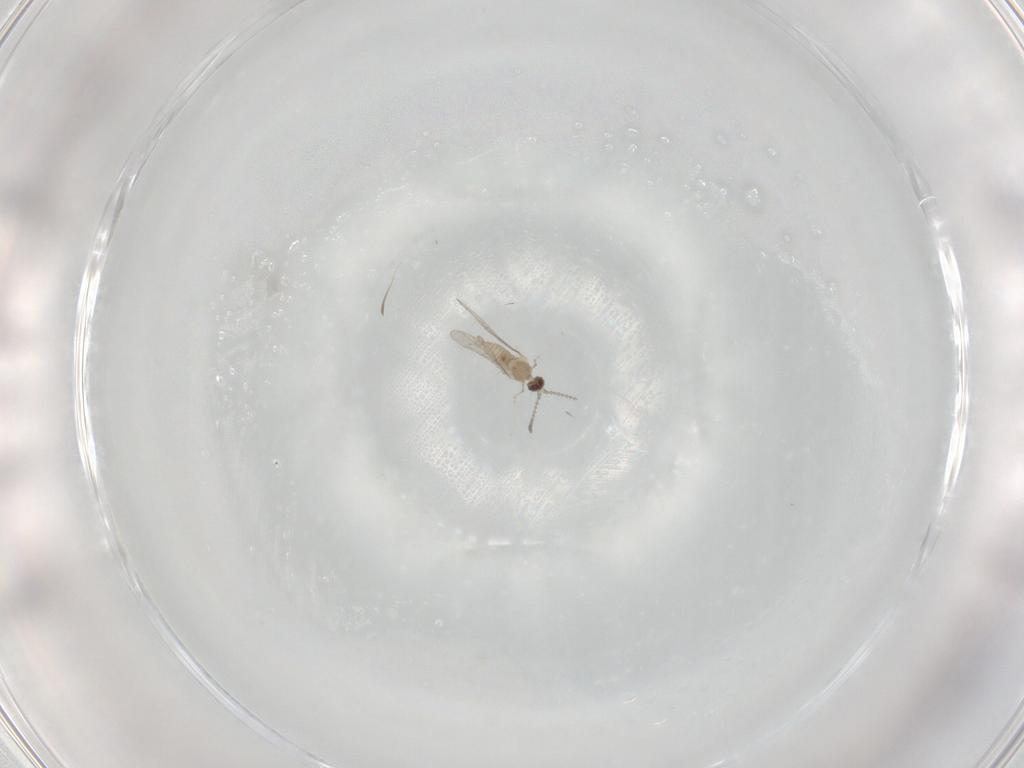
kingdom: Animalia
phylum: Arthropoda
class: Insecta
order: Diptera
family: Cecidomyiidae
